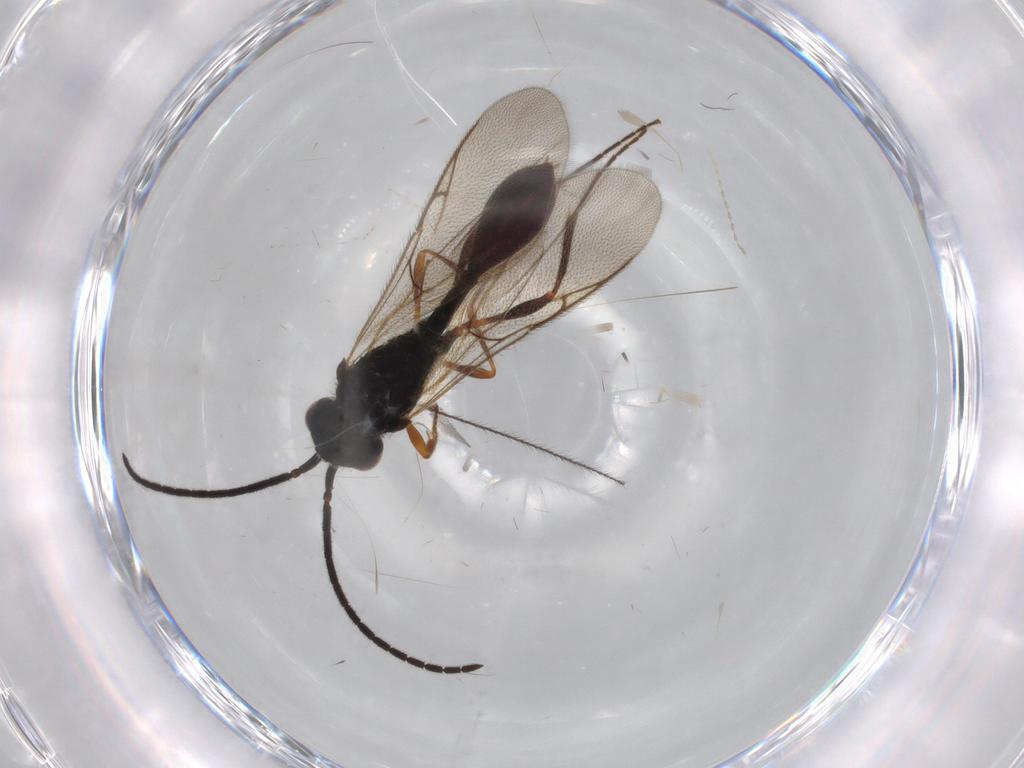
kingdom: Animalia
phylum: Arthropoda
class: Insecta
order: Hymenoptera
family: Diapriidae
